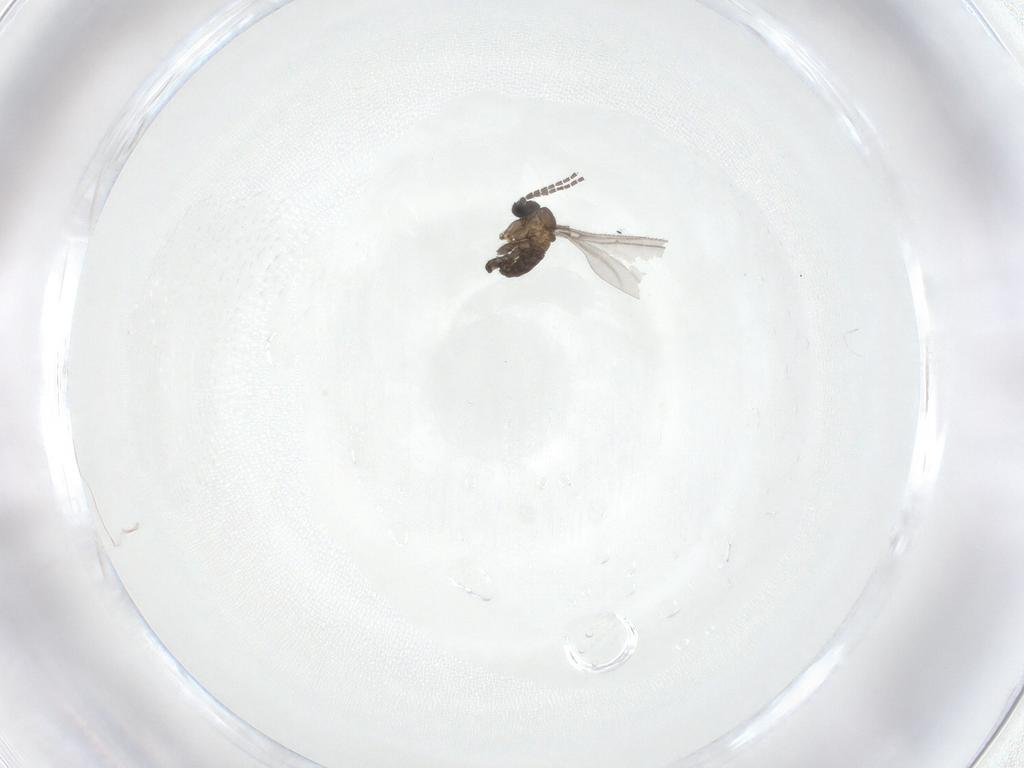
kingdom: Animalia
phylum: Arthropoda
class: Insecta
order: Diptera
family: Sciaridae
